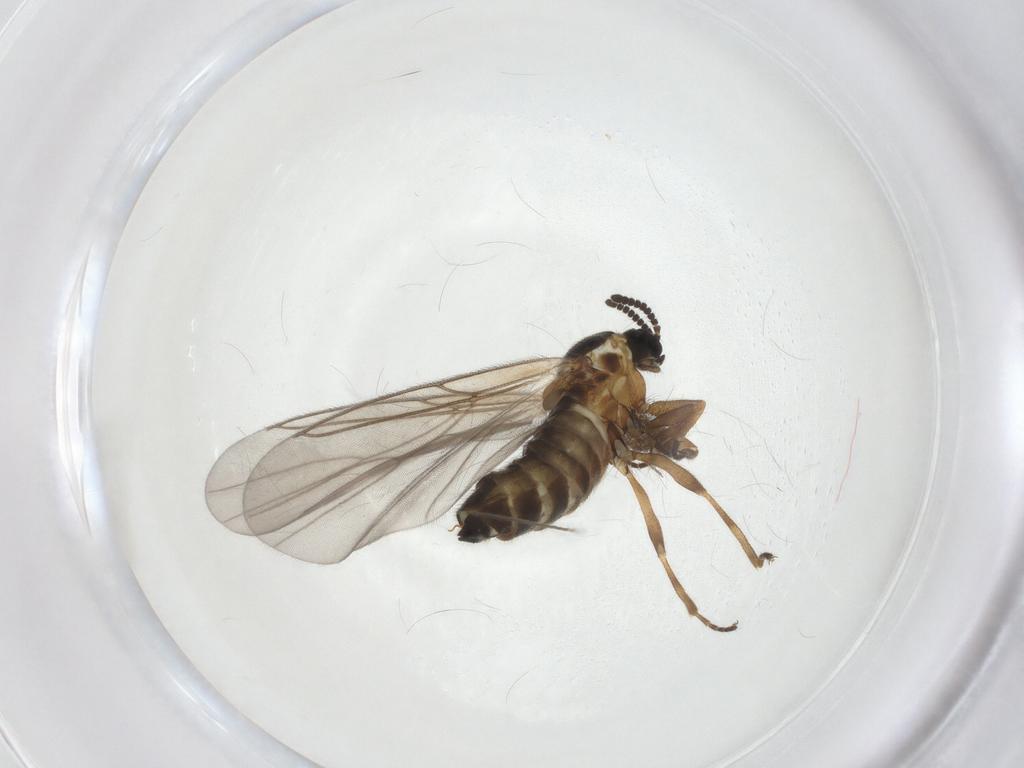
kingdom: Animalia
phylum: Arthropoda
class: Insecta
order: Diptera
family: Scatopsidae
